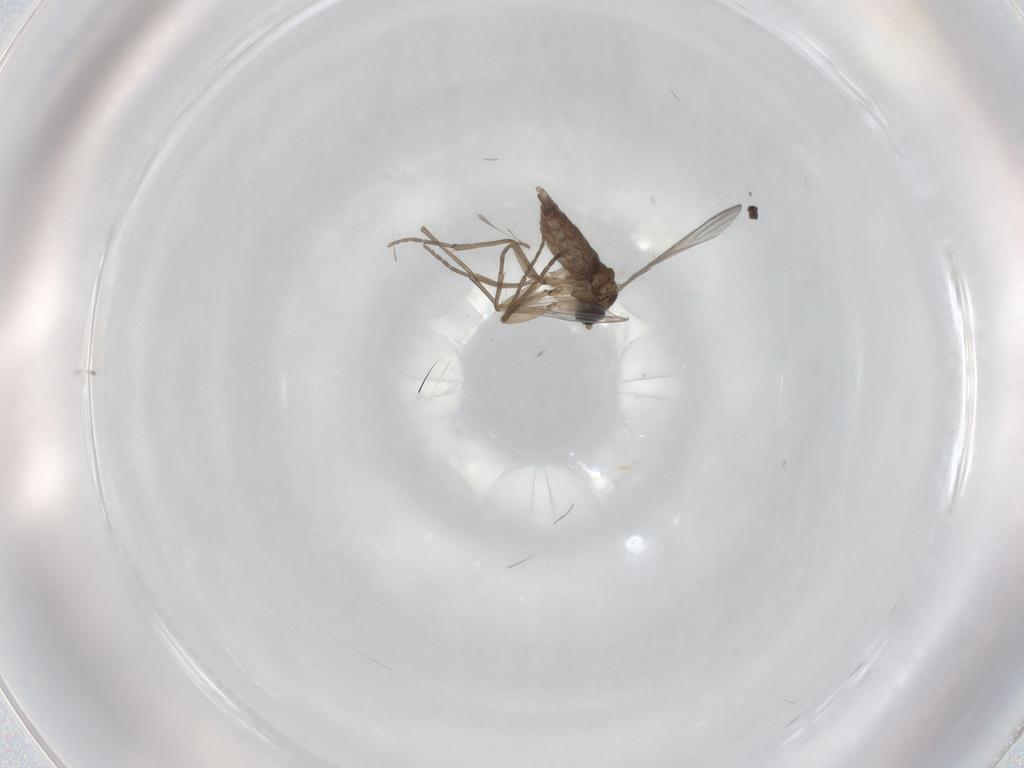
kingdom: Animalia
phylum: Arthropoda
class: Insecta
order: Diptera
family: Sciaridae
